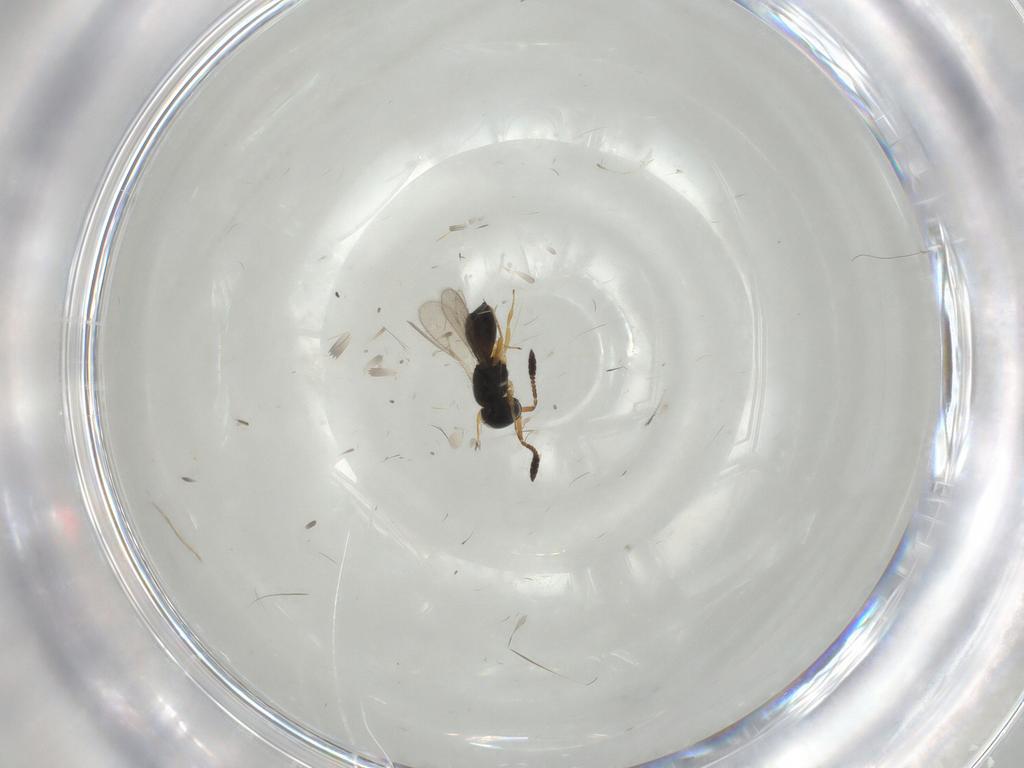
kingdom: Animalia
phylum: Arthropoda
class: Insecta
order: Hymenoptera
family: Scelionidae
